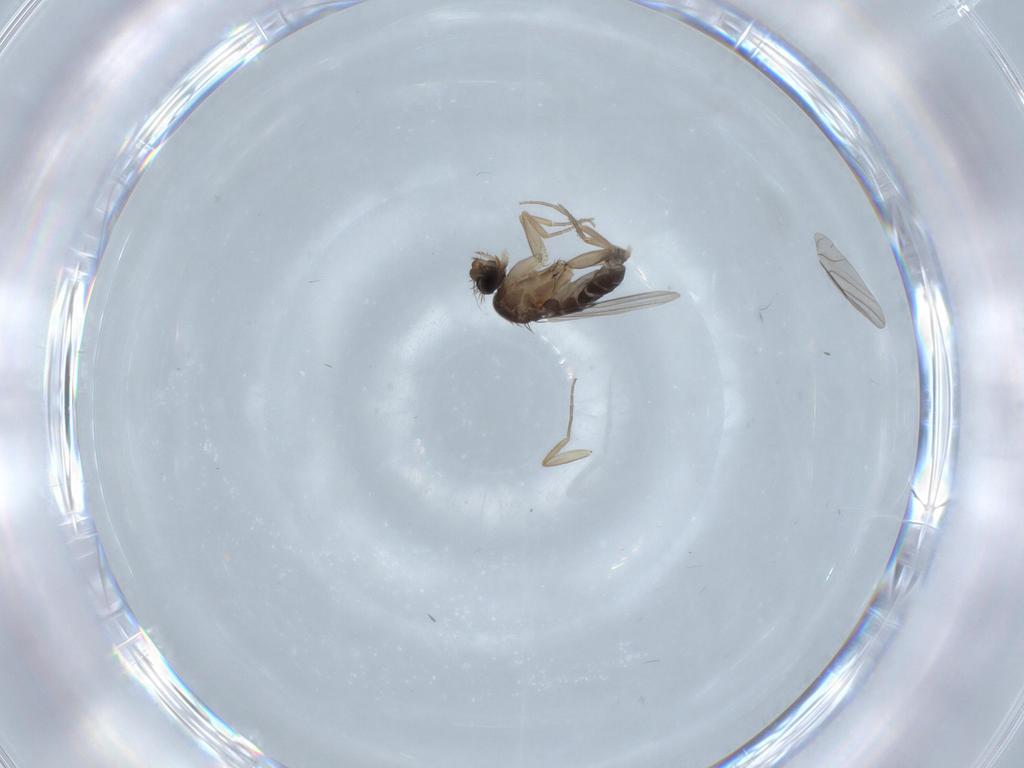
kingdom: Animalia
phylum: Arthropoda
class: Insecta
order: Diptera
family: Phoridae
